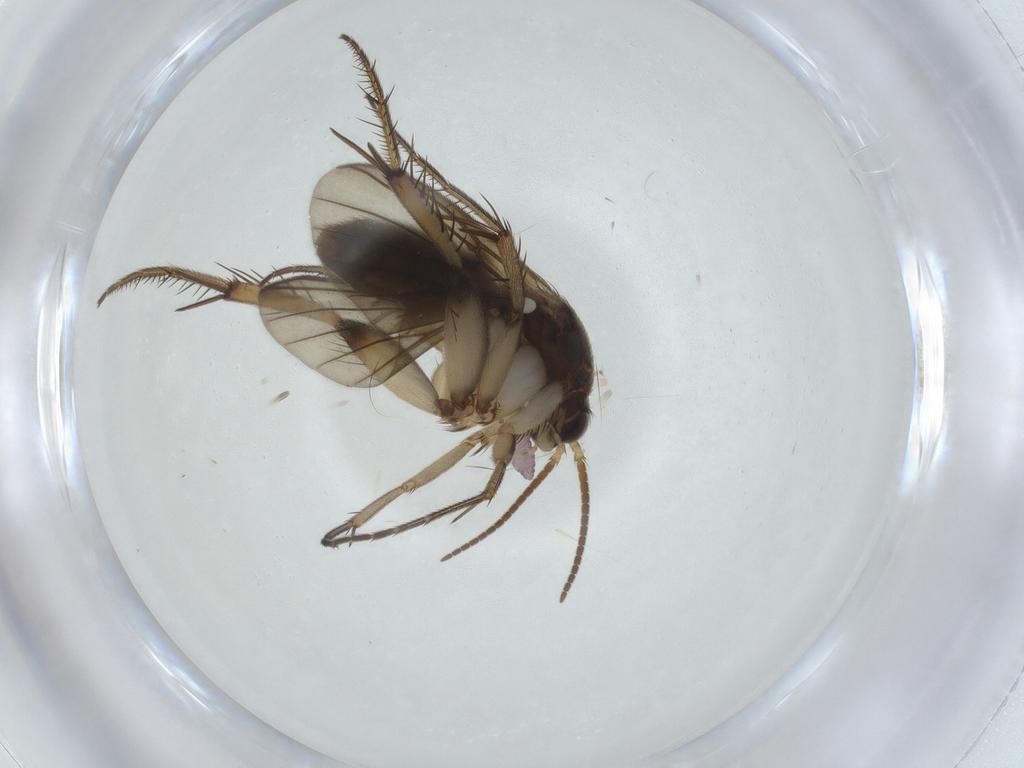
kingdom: Animalia
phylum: Arthropoda
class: Insecta
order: Diptera
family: Mycetophilidae
